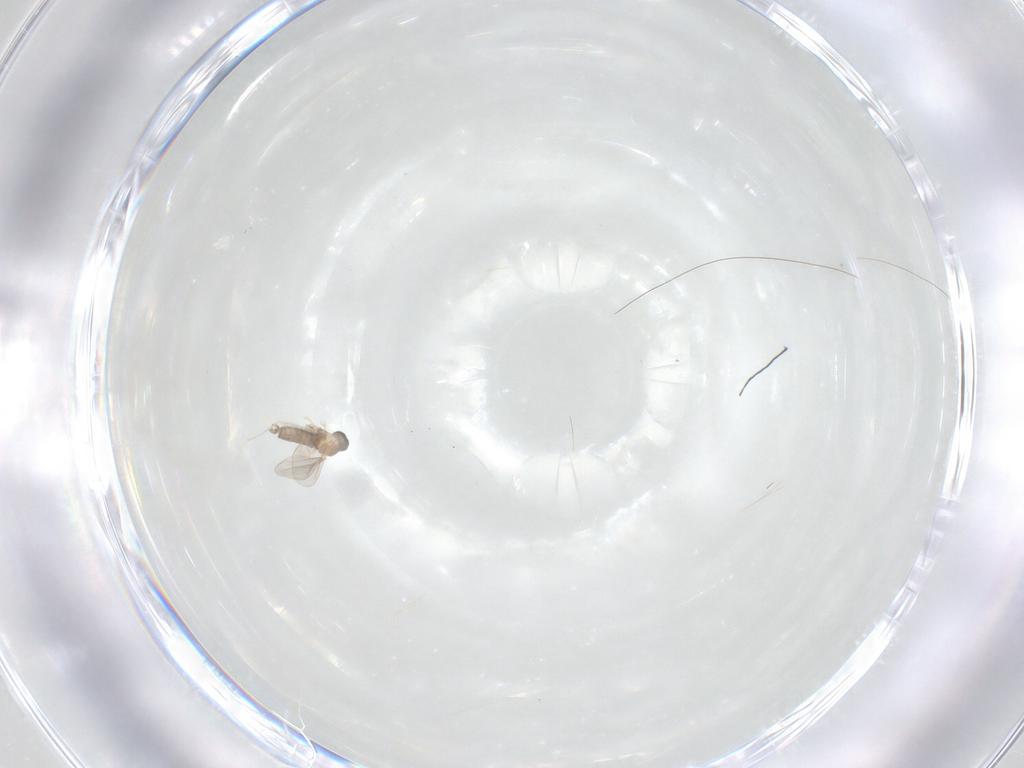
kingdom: Animalia
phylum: Arthropoda
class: Insecta
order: Diptera
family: Cecidomyiidae
